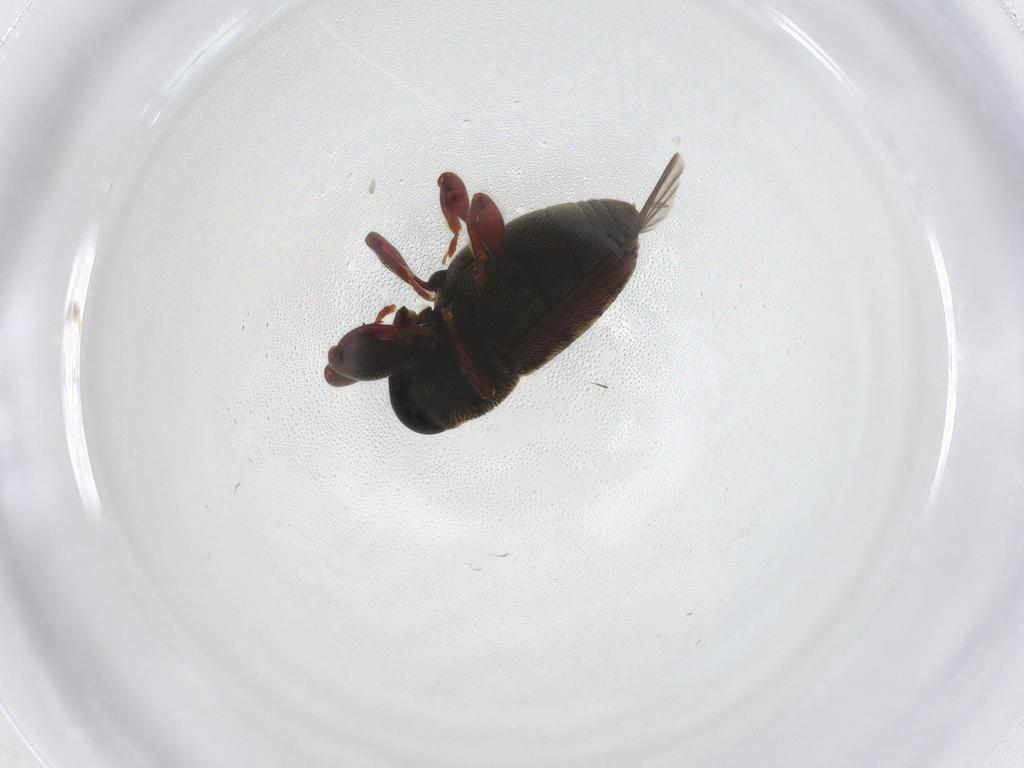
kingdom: Animalia
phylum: Arthropoda
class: Insecta
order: Coleoptera
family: Curculionidae
